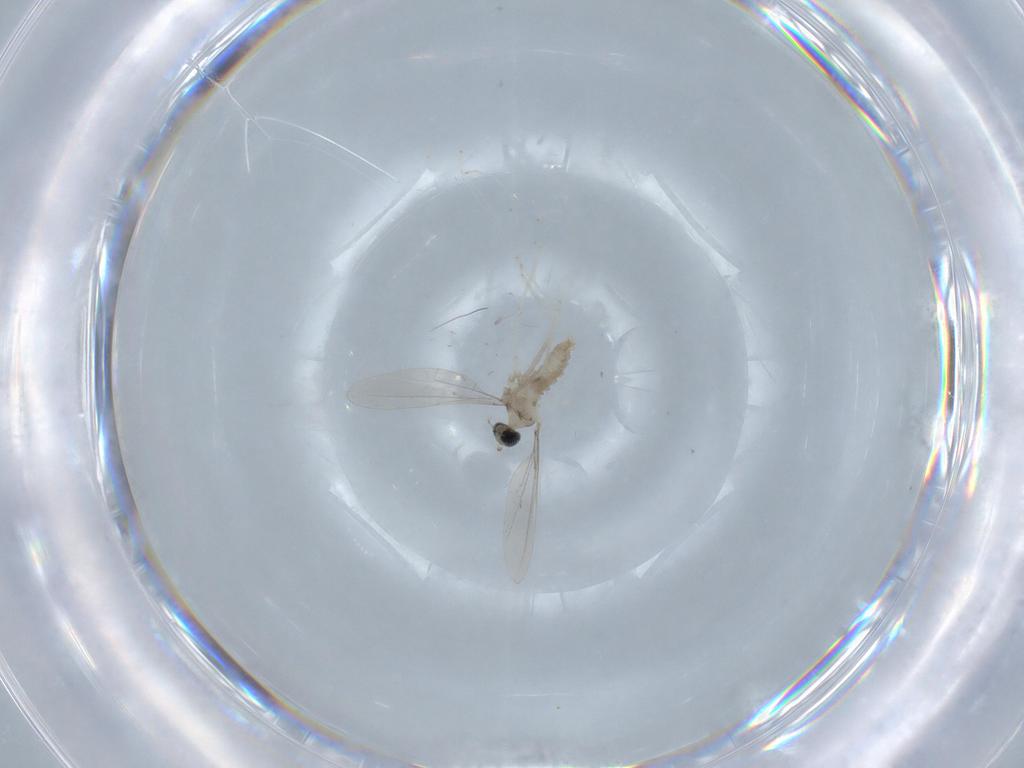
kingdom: Animalia
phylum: Arthropoda
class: Insecta
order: Diptera
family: Cecidomyiidae
